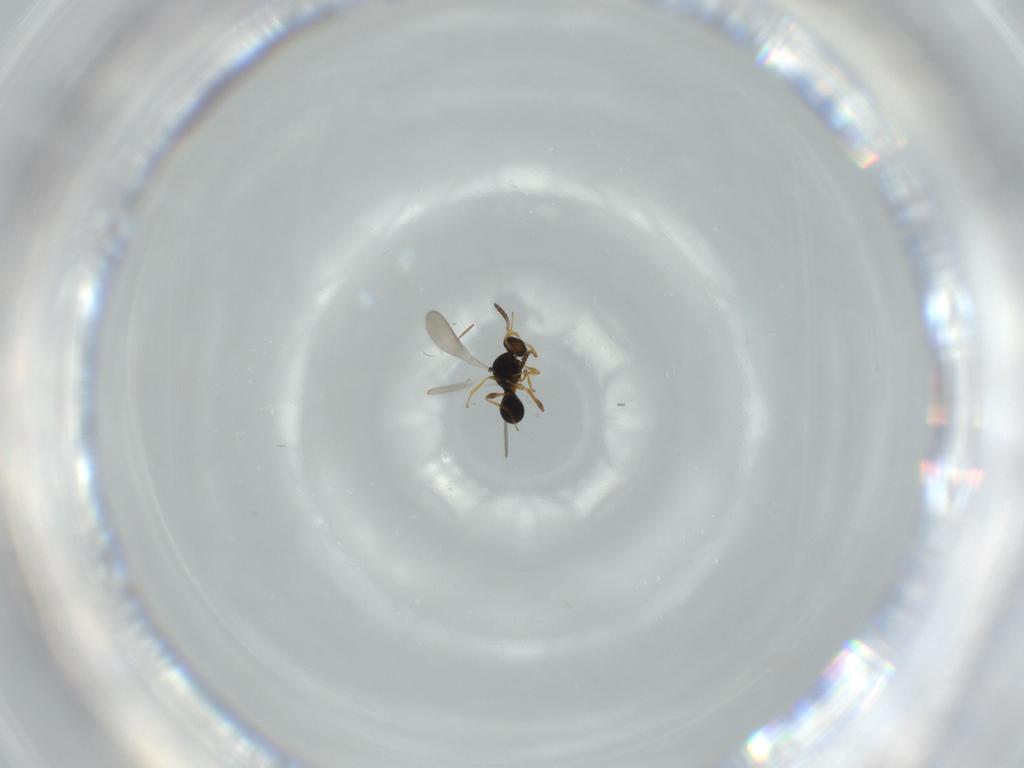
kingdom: Animalia
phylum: Arthropoda
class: Insecta
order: Hymenoptera
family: Platygastridae
